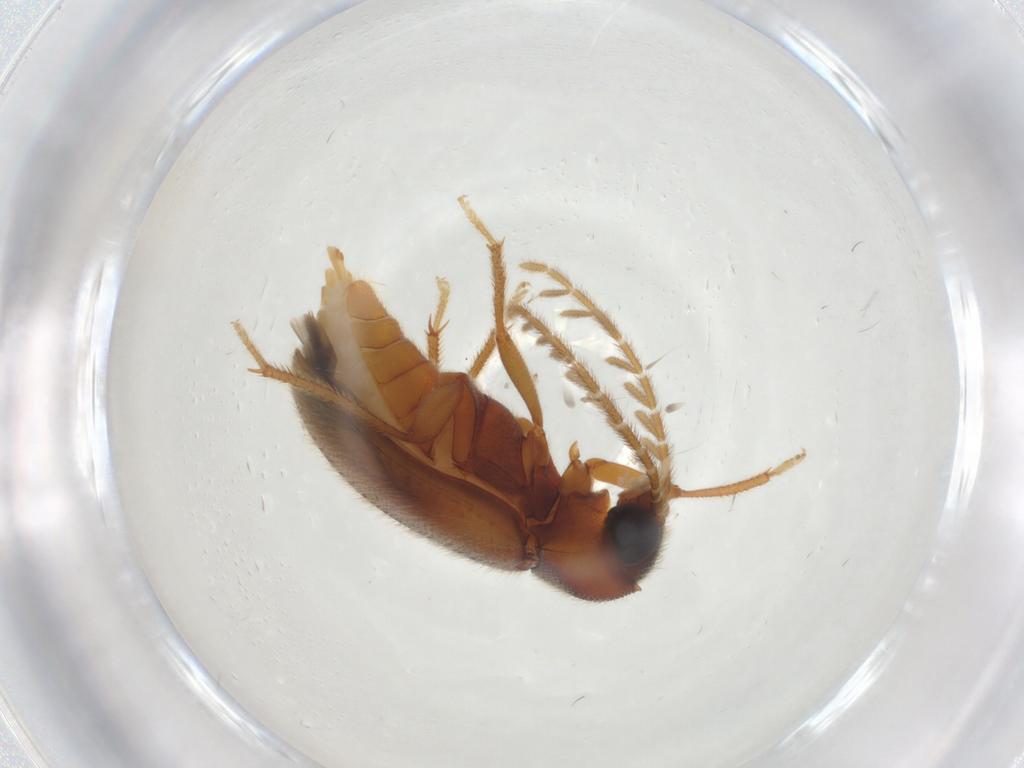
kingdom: Animalia
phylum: Arthropoda
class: Insecta
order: Coleoptera
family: Ptilodactylidae
